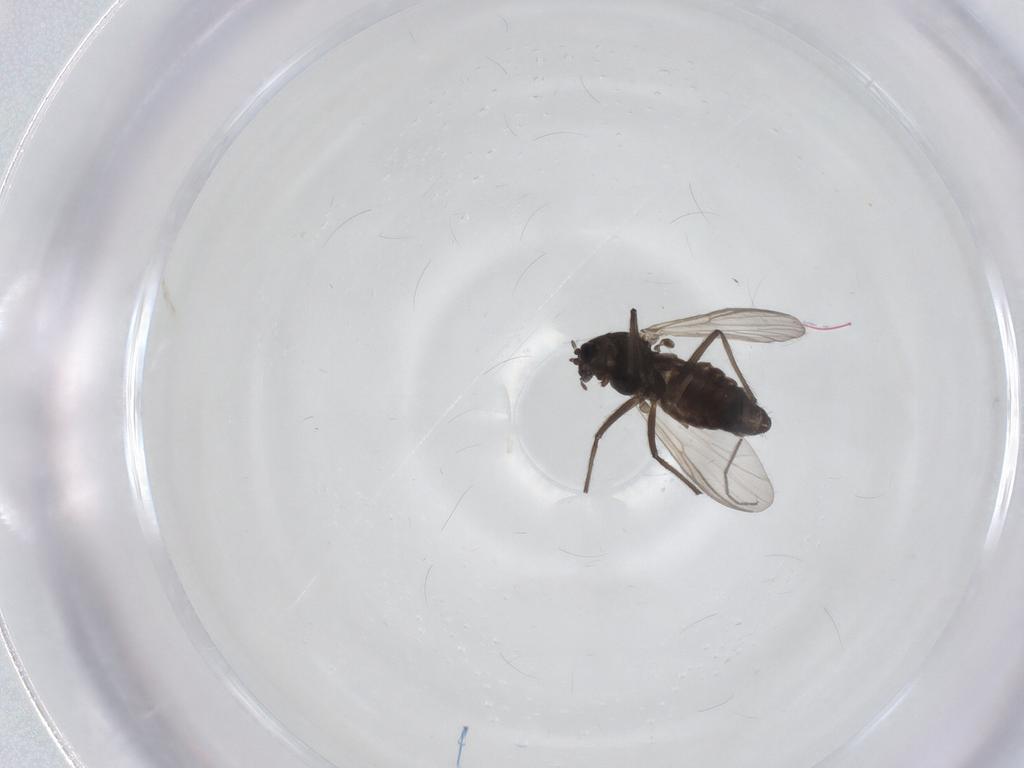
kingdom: Animalia
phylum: Arthropoda
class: Insecta
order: Diptera
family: Chironomidae
